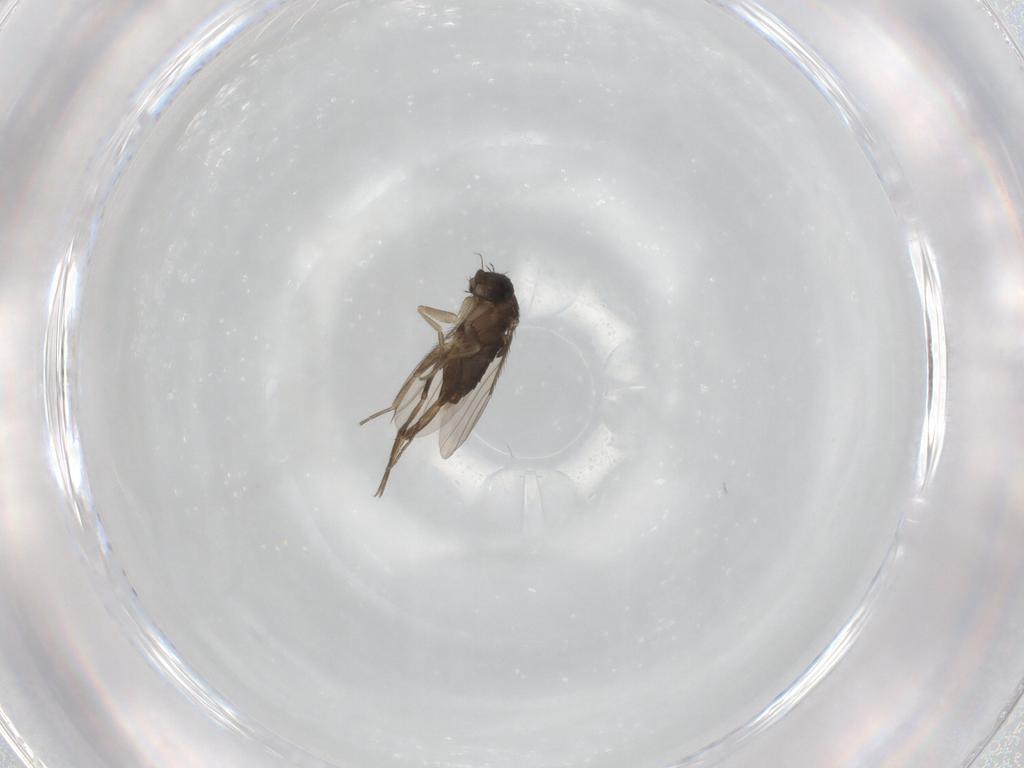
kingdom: Animalia
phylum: Arthropoda
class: Insecta
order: Diptera
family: Phoridae
